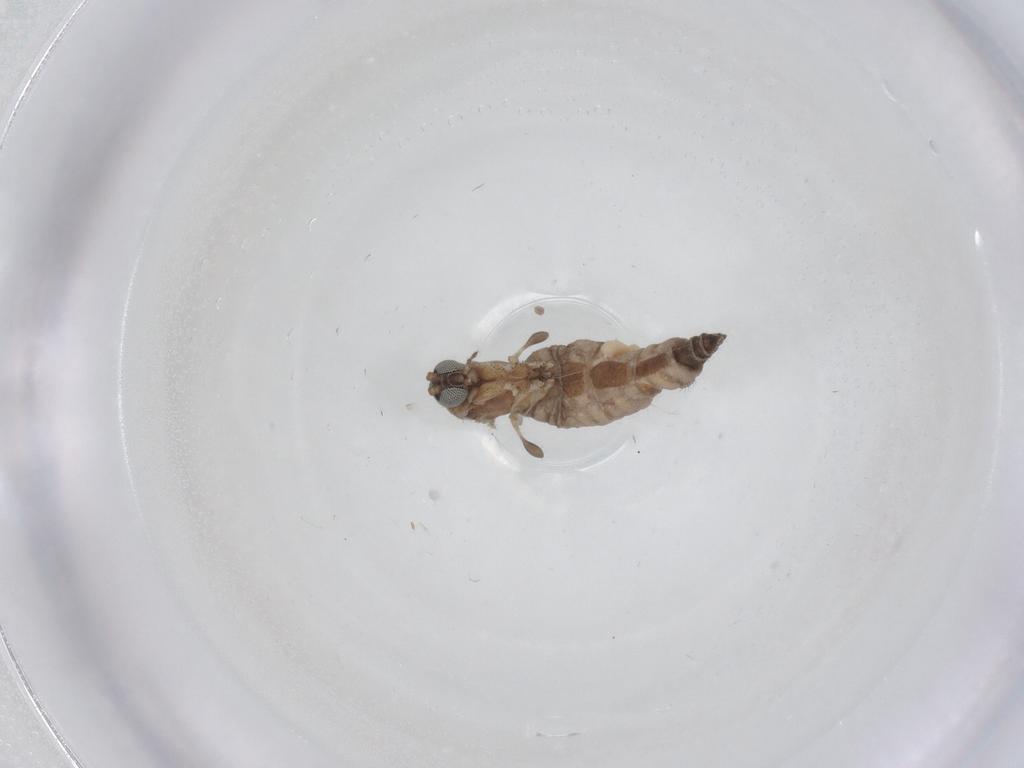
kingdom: Animalia
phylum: Arthropoda
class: Insecta
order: Diptera
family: Sciaridae
